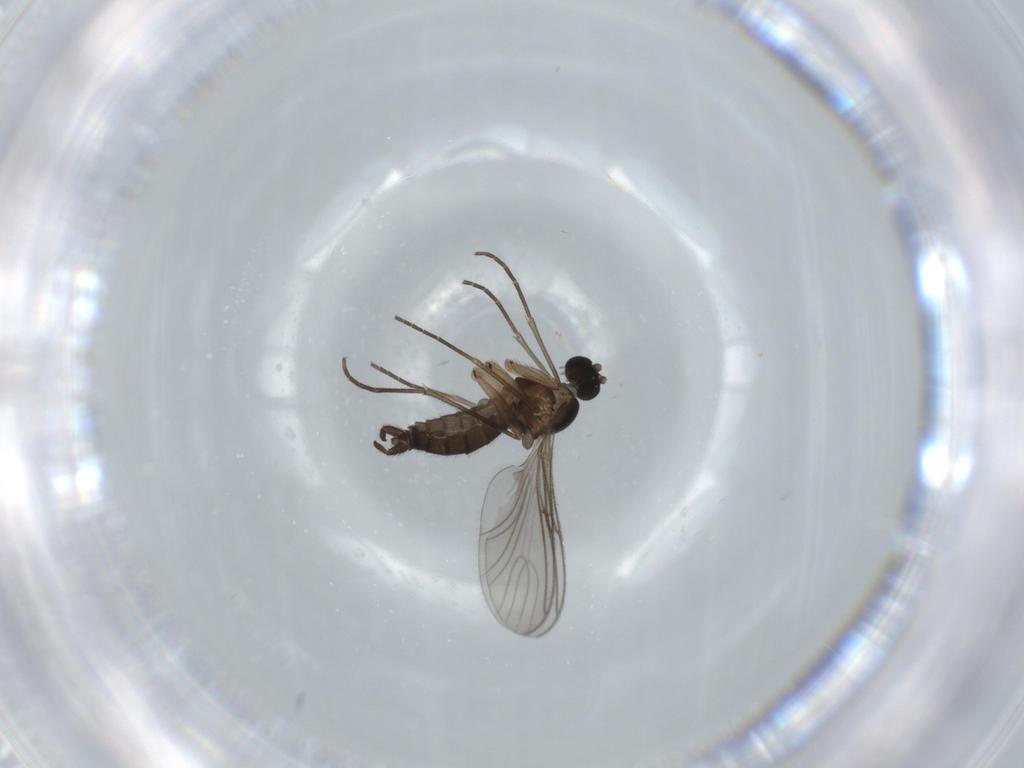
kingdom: Animalia
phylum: Arthropoda
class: Insecta
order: Diptera
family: Sciaridae
